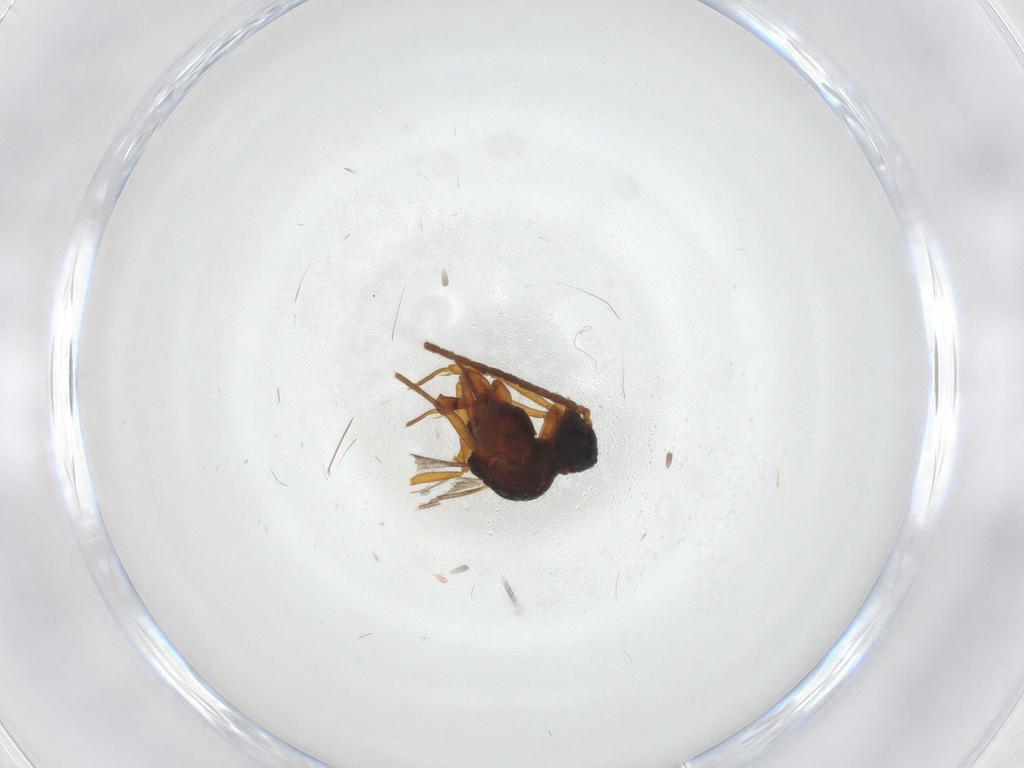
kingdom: Animalia
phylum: Arthropoda
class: Insecta
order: Hymenoptera
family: Formicidae
